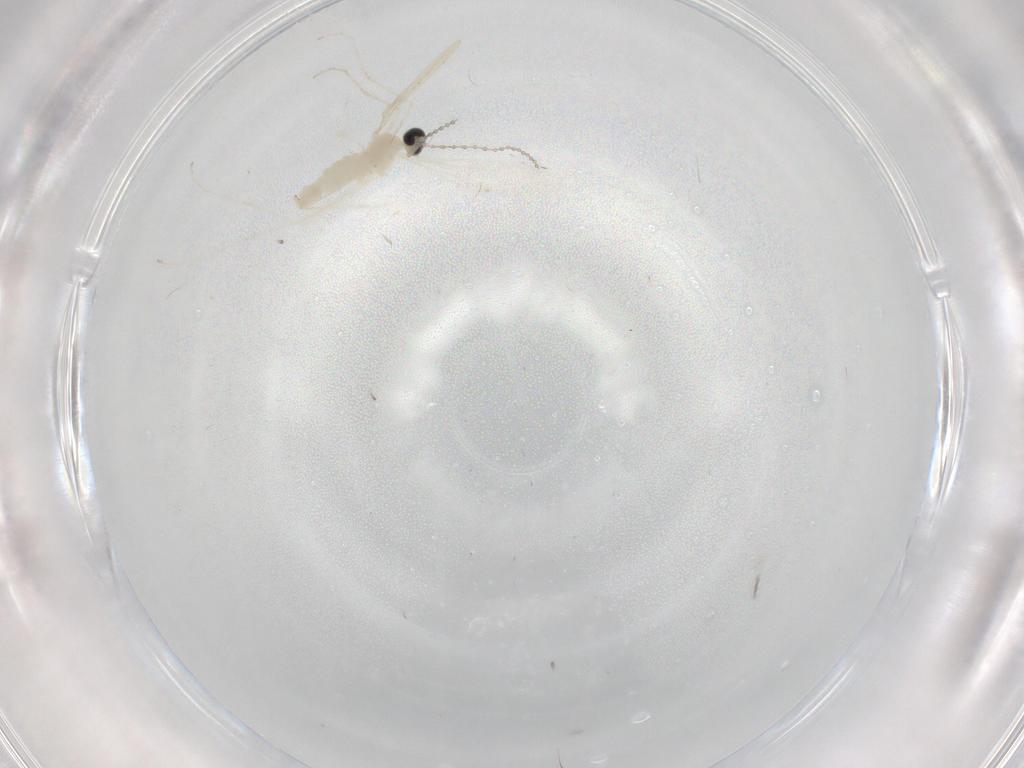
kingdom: Animalia
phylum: Arthropoda
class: Insecta
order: Diptera
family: Cecidomyiidae
